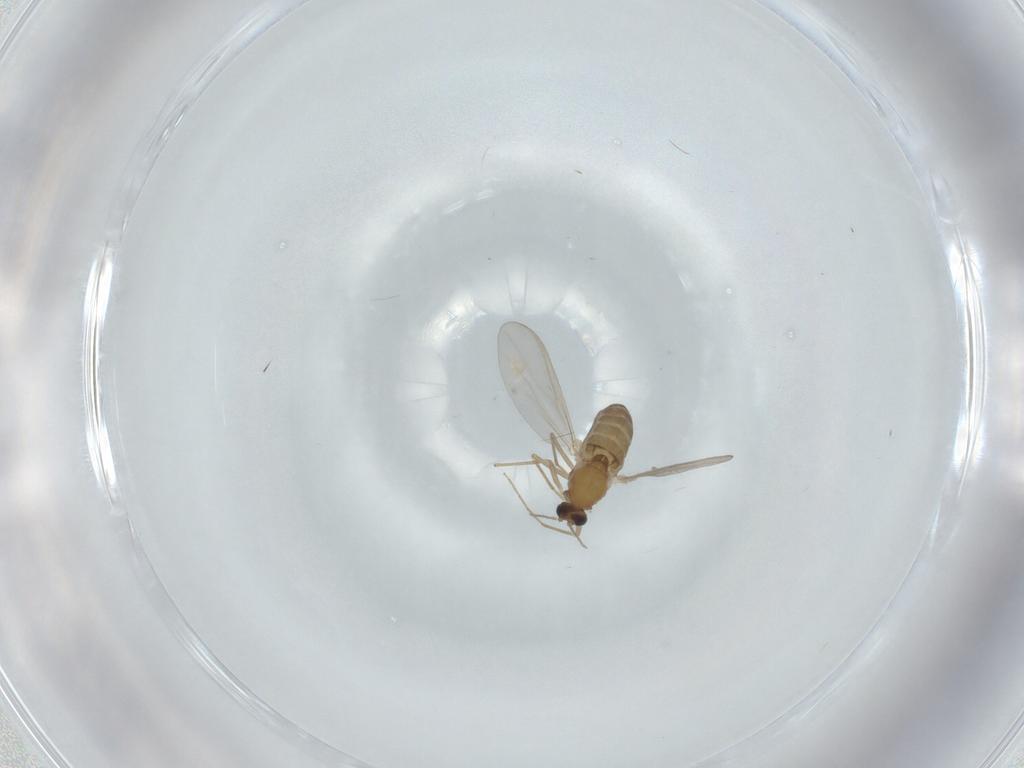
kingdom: Animalia
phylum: Arthropoda
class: Insecta
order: Diptera
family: Chironomidae
